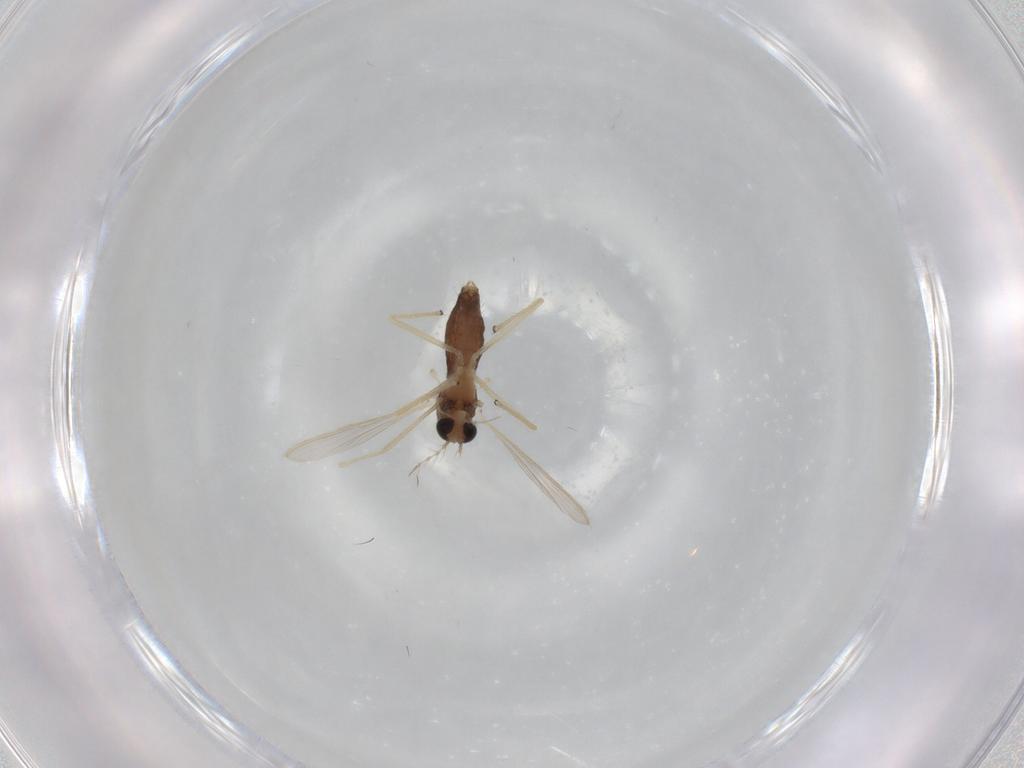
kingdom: Animalia
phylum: Arthropoda
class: Insecta
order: Diptera
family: Chironomidae
